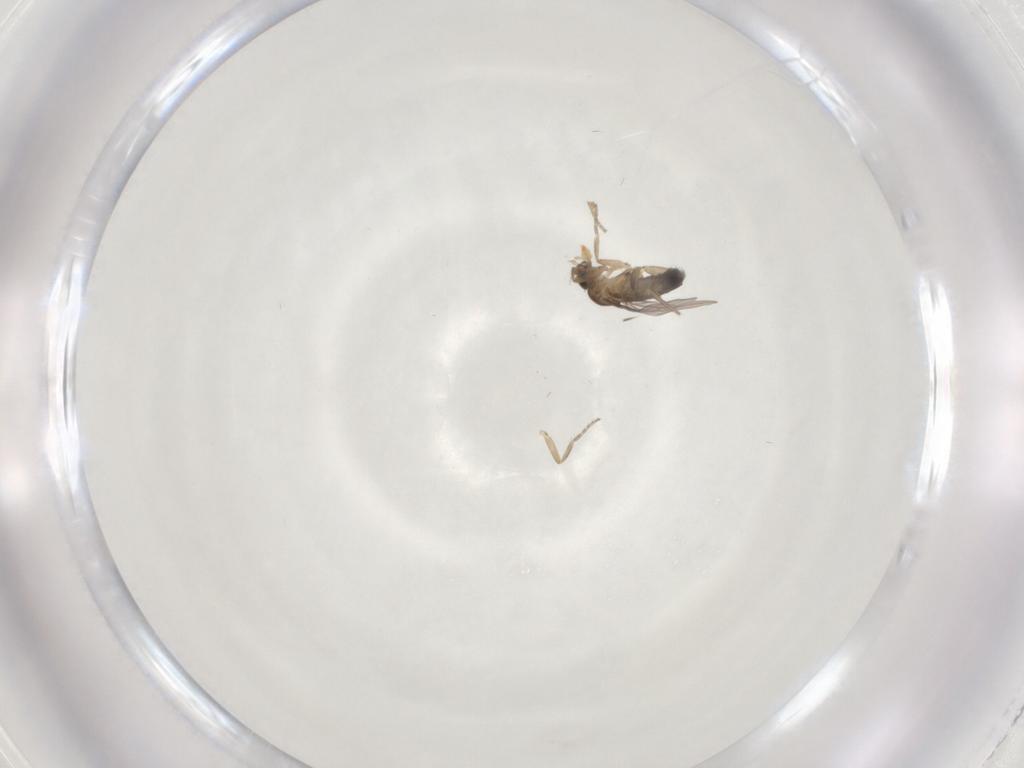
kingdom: Animalia
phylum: Arthropoda
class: Insecta
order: Diptera
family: Phoridae
